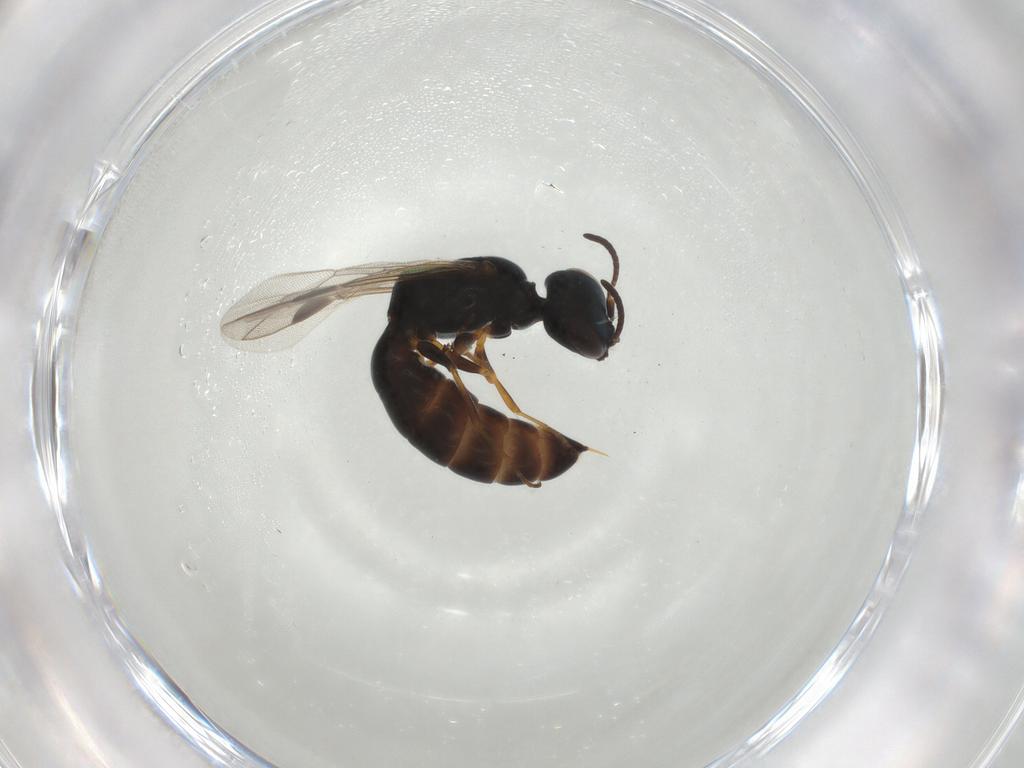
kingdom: Animalia
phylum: Arthropoda
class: Insecta
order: Hymenoptera
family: Crabronidae
